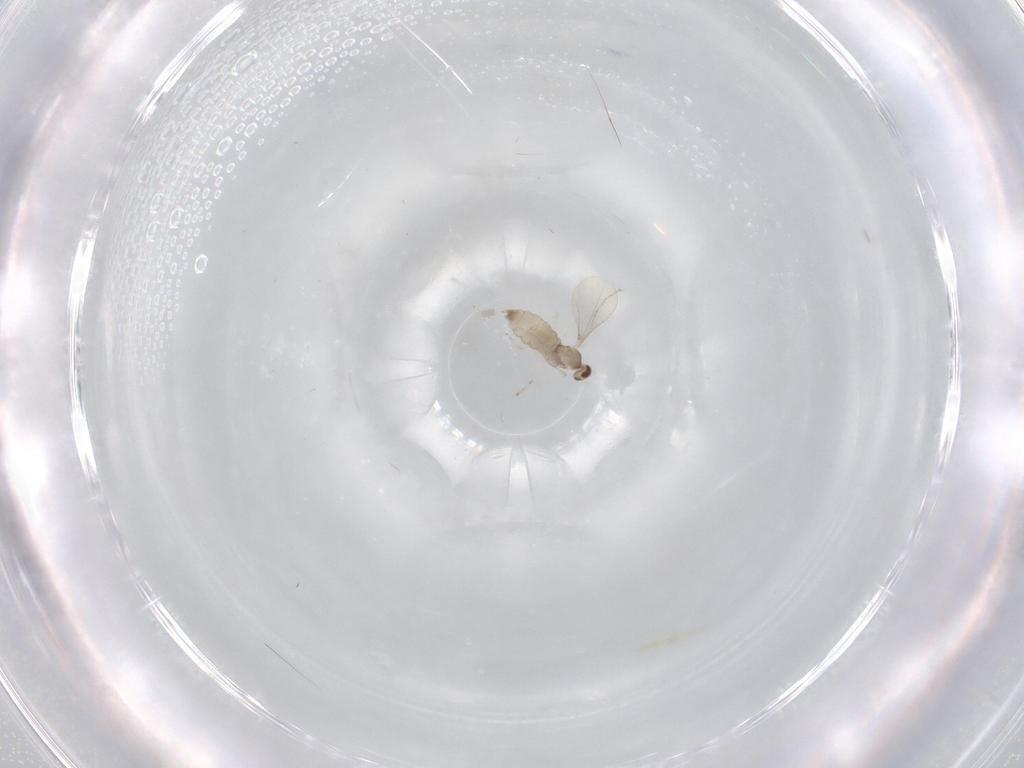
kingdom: Animalia
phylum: Arthropoda
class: Insecta
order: Diptera
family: Cecidomyiidae
